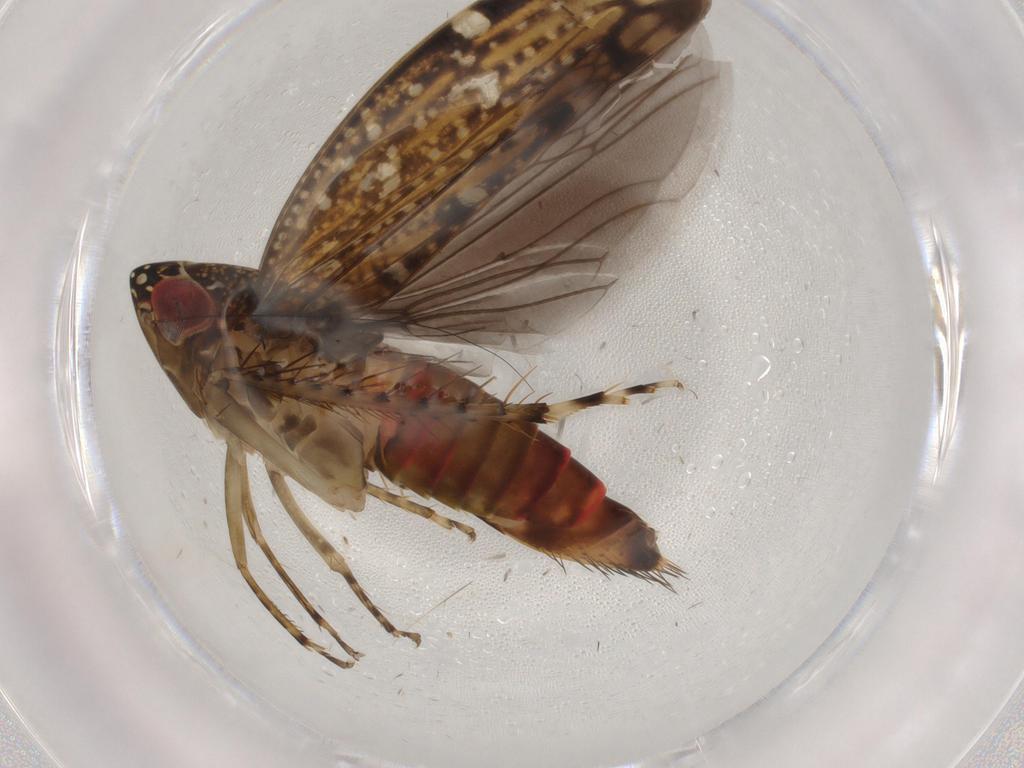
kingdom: Animalia
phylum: Arthropoda
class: Insecta
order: Hemiptera
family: Cicadellidae
